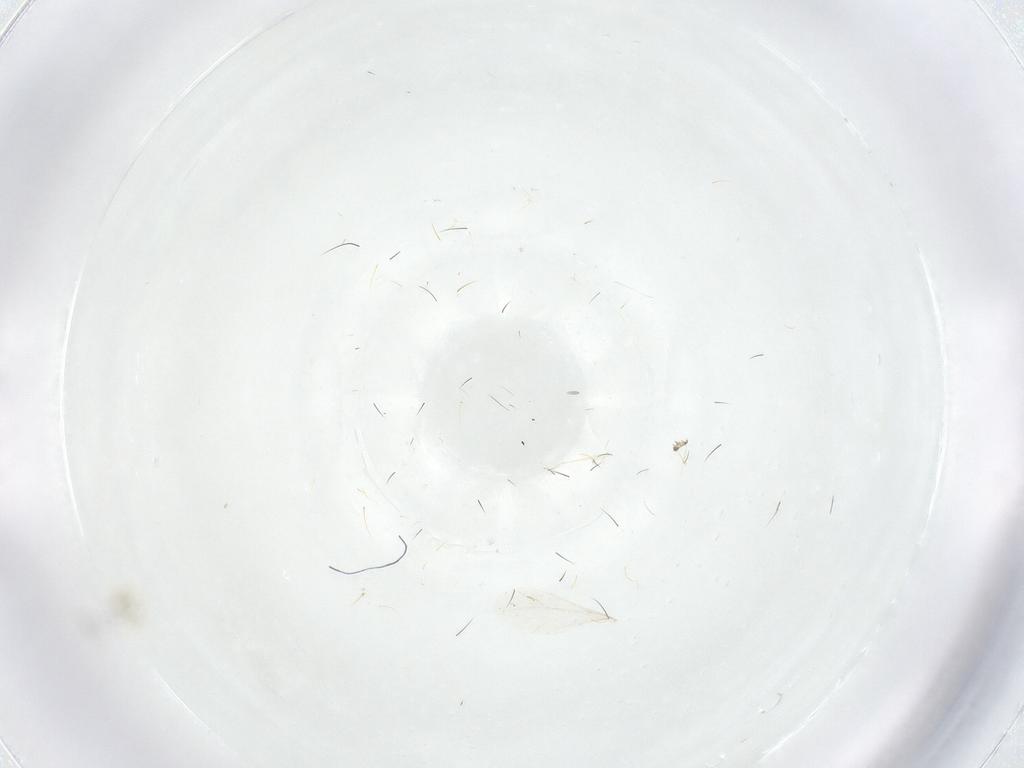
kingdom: Animalia
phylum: Arthropoda
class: Insecta
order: Hemiptera
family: Aleyrodidae
